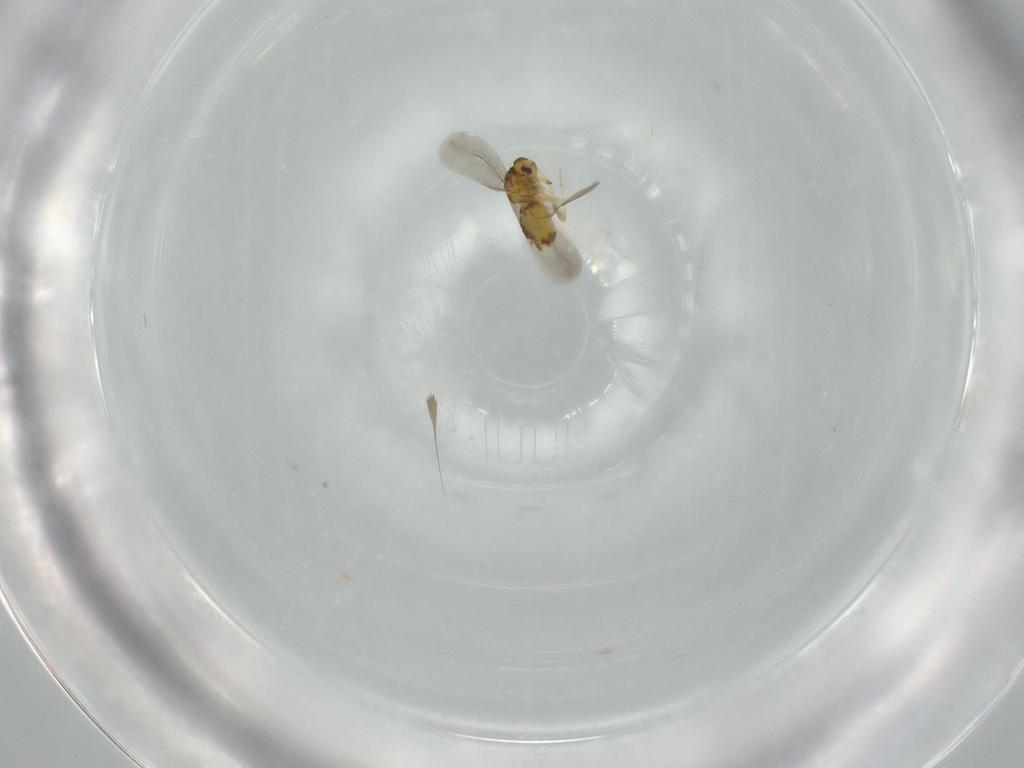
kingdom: Animalia
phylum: Arthropoda
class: Insecta
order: Hemiptera
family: Aleyrodidae
